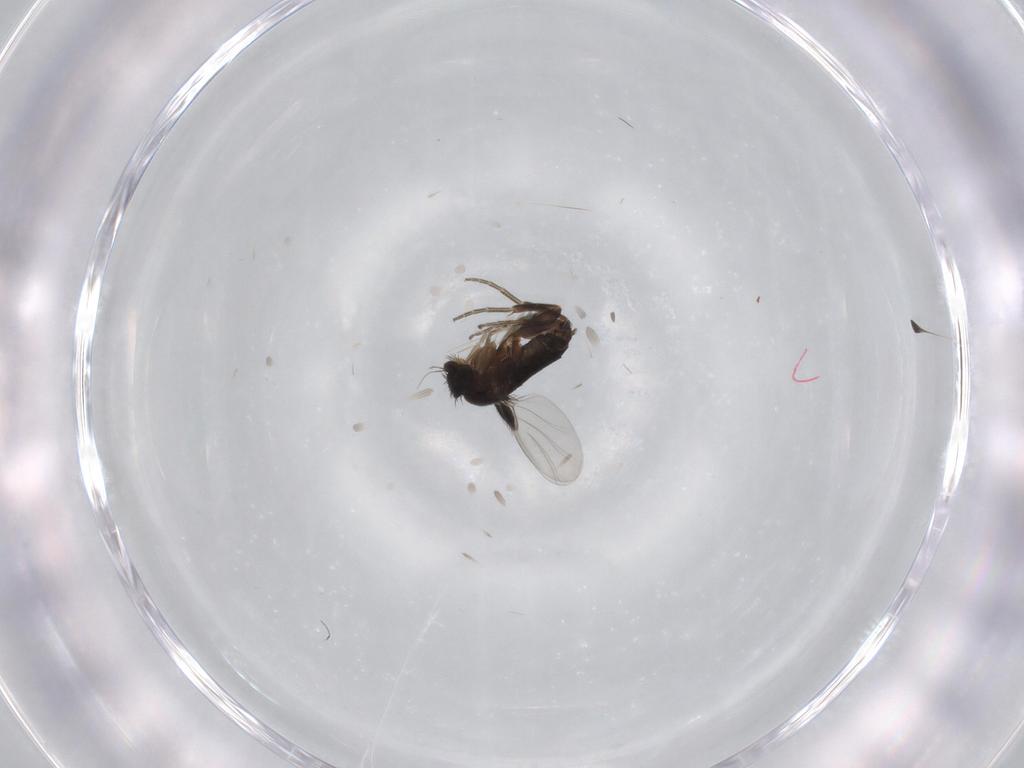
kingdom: Animalia
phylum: Arthropoda
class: Insecta
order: Diptera
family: Phoridae
